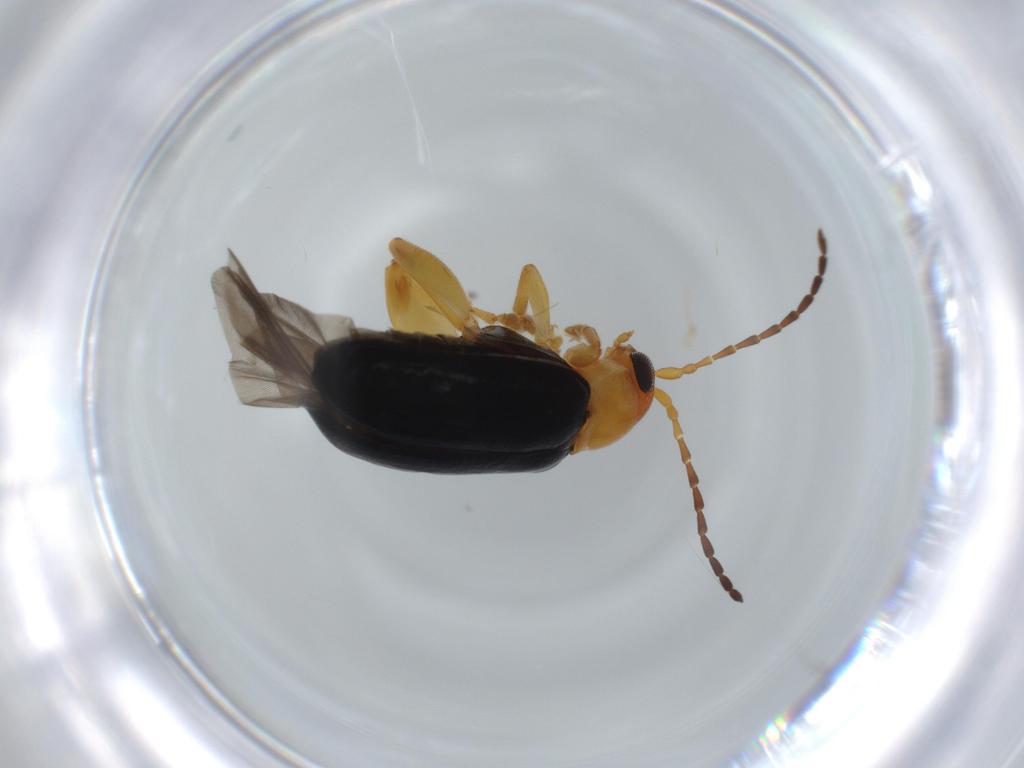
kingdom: Animalia
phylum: Arthropoda
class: Insecta
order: Coleoptera
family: Chrysomelidae
